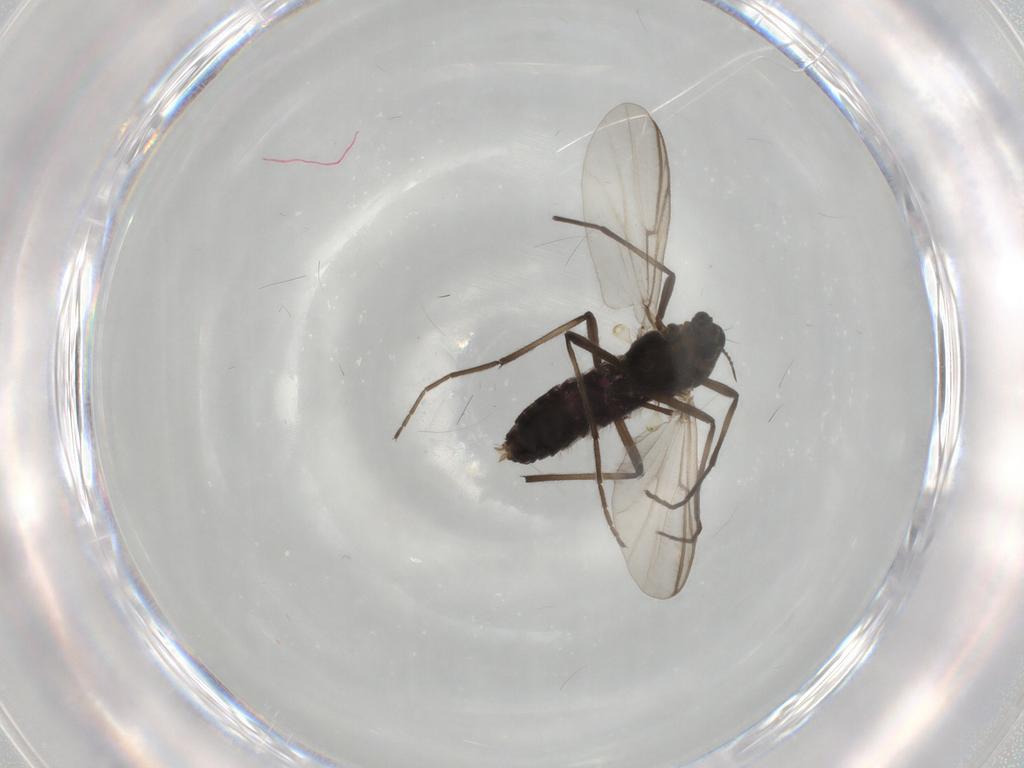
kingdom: Animalia
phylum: Arthropoda
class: Insecta
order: Diptera
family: Chironomidae
